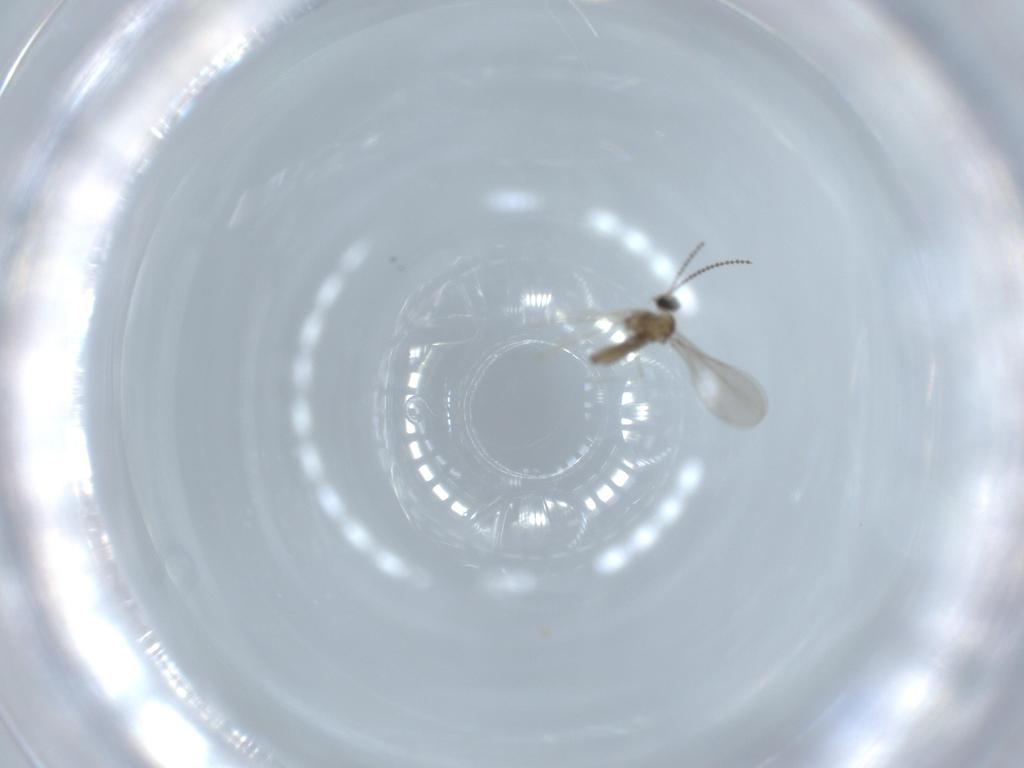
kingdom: Animalia
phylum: Arthropoda
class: Insecta
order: Diptera
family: Cecidomyiidae
